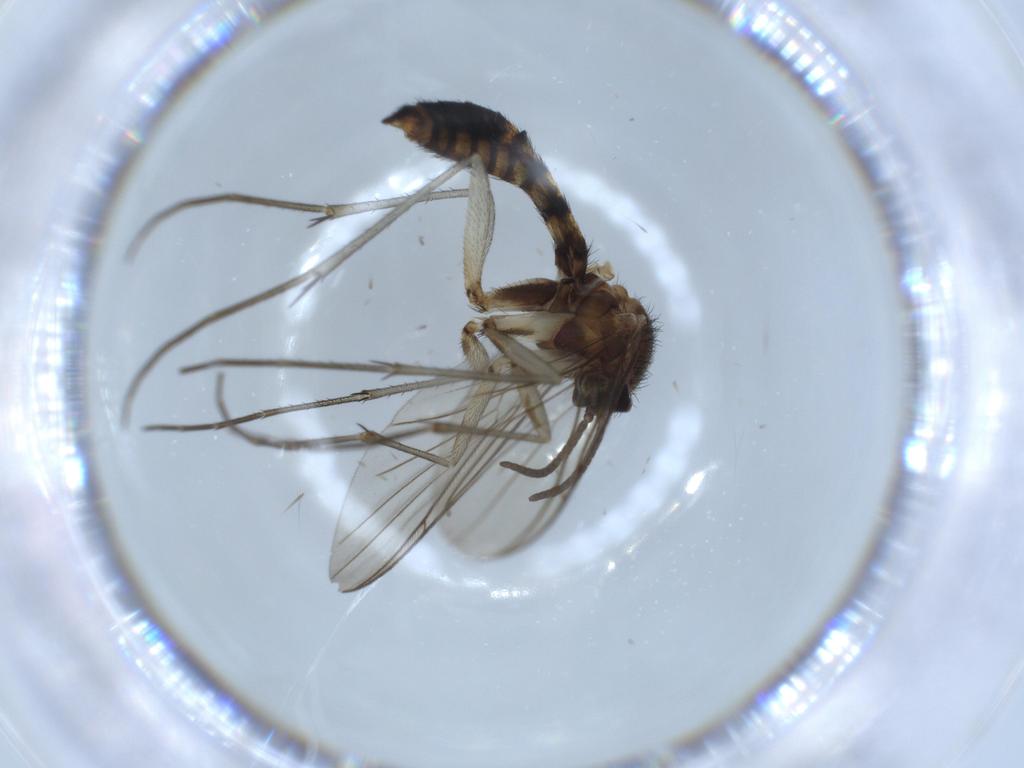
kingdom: Animalia
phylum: Arthropoda
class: Insecta
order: Diptera
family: Keroplatidae
